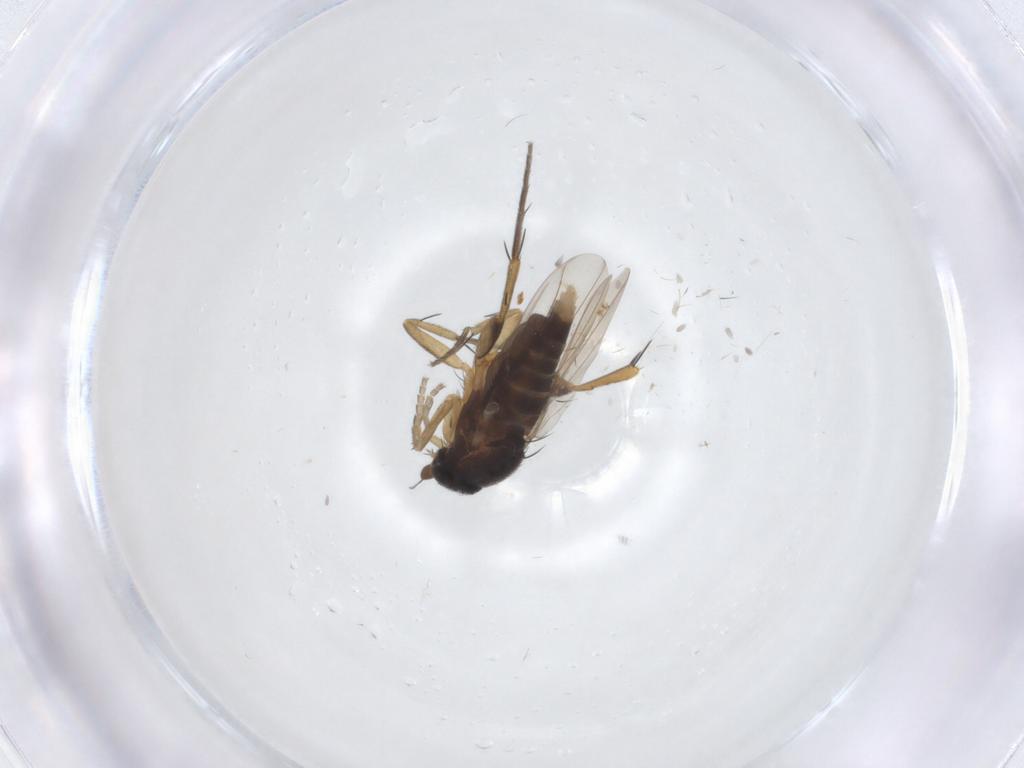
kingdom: Animalia
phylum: Arthropoda
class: Insecta
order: Diptera
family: Phoridae
